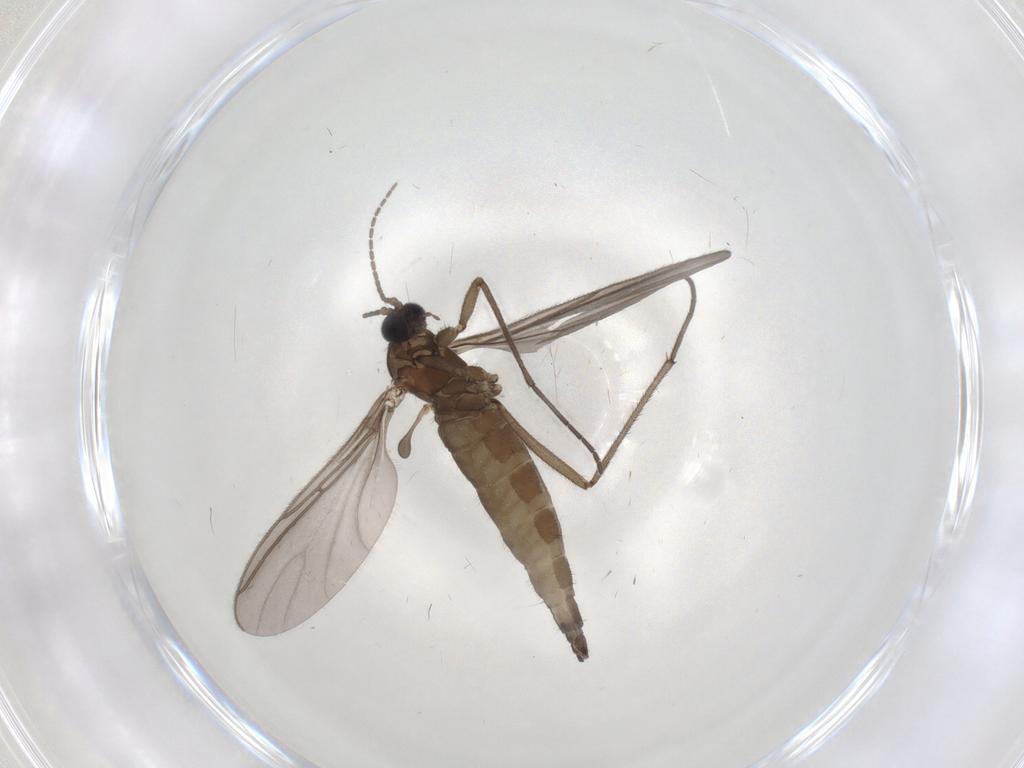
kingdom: Animalia
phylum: Arthropoda
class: Insecta
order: Diptera
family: Sciaridae
